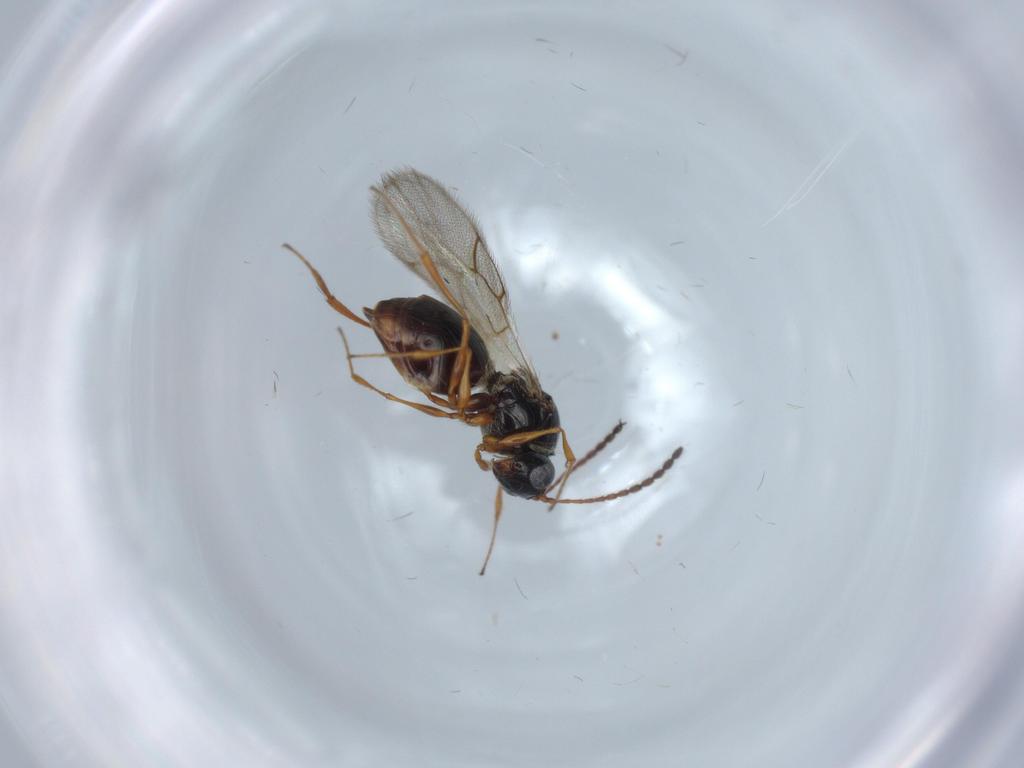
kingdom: Animalia
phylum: Arthropoda
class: Insecta
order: Hymenoptera
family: Figitidae
